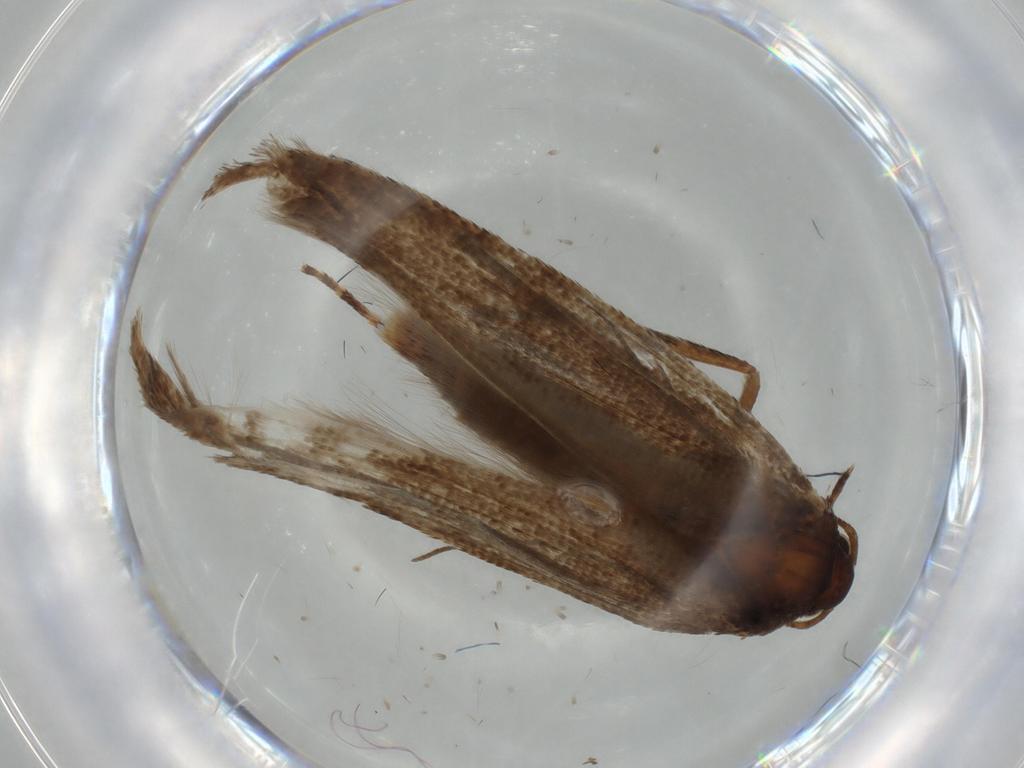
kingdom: Animalia
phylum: Arthropoda
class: Insecta
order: Lepidoptera
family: Epermeniidae
